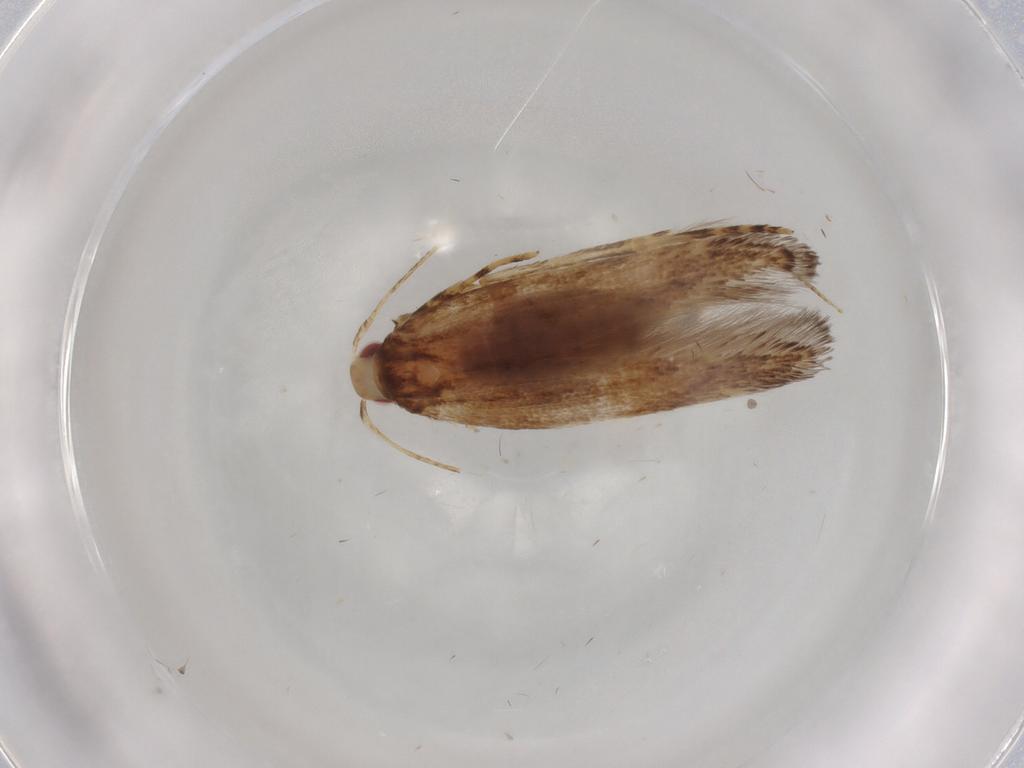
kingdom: Animalia
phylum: Arthropoda
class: Insecta
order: Lepidoptera
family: Cosmopterigidae
